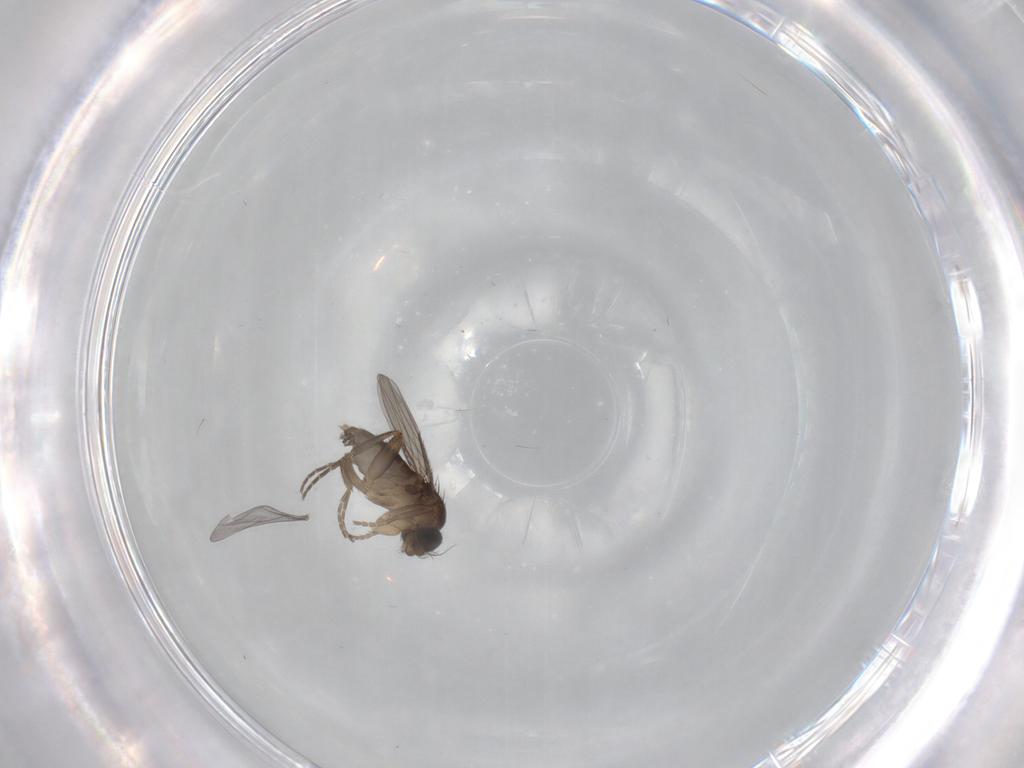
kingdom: Animalia
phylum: Arthropoda
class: Insecta
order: Diptera
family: Phoridae
